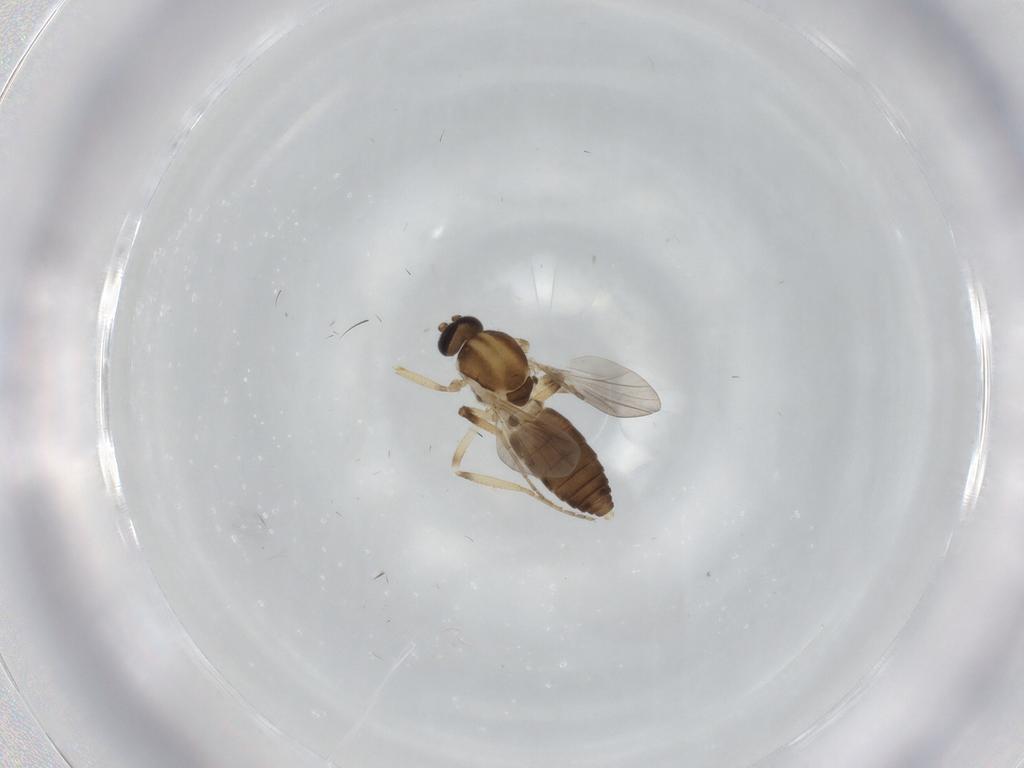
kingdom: Animalia
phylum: Arthropoda
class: Insecta
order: Diptera
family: Ceratopogonidae
